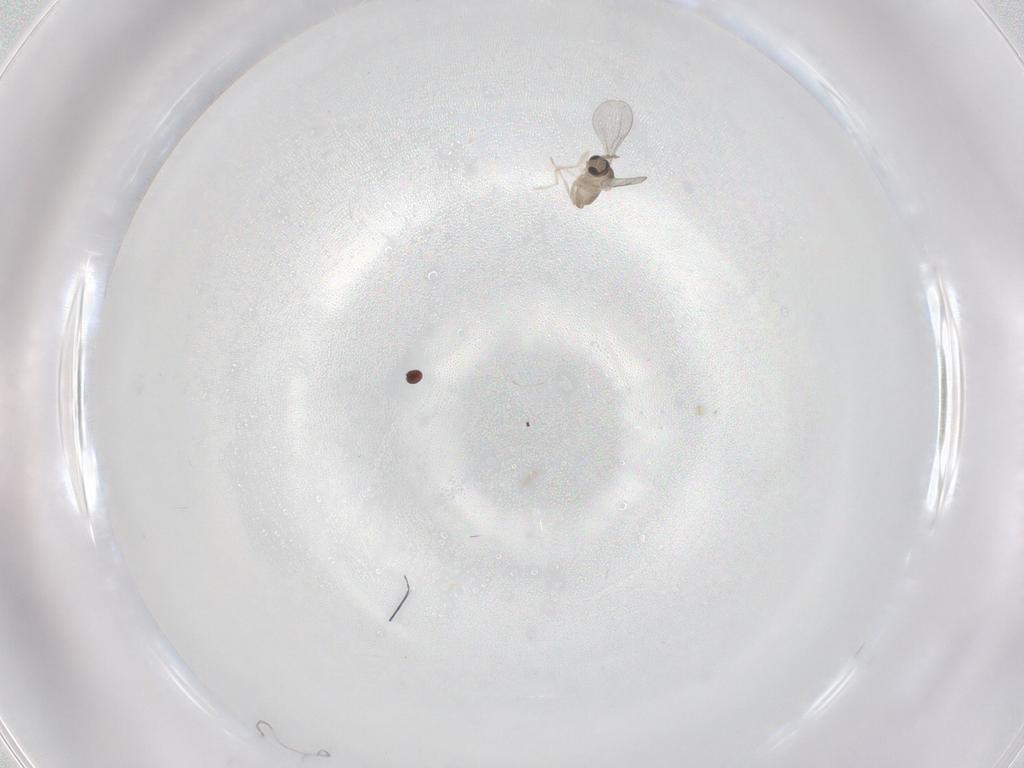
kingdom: Animalia
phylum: Arthropoda
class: Insecta
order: Diptera
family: Cecidomyiidae
